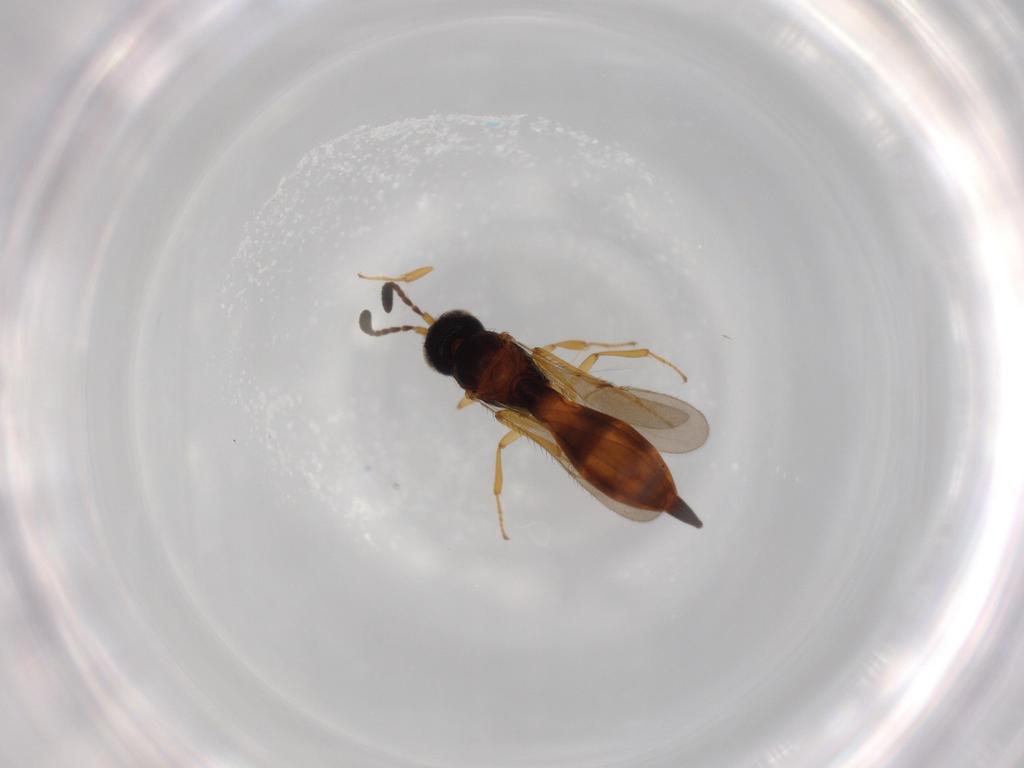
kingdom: Animalia
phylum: Arthropoda
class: Insecta
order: Hymenoptera
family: Scelionidae
